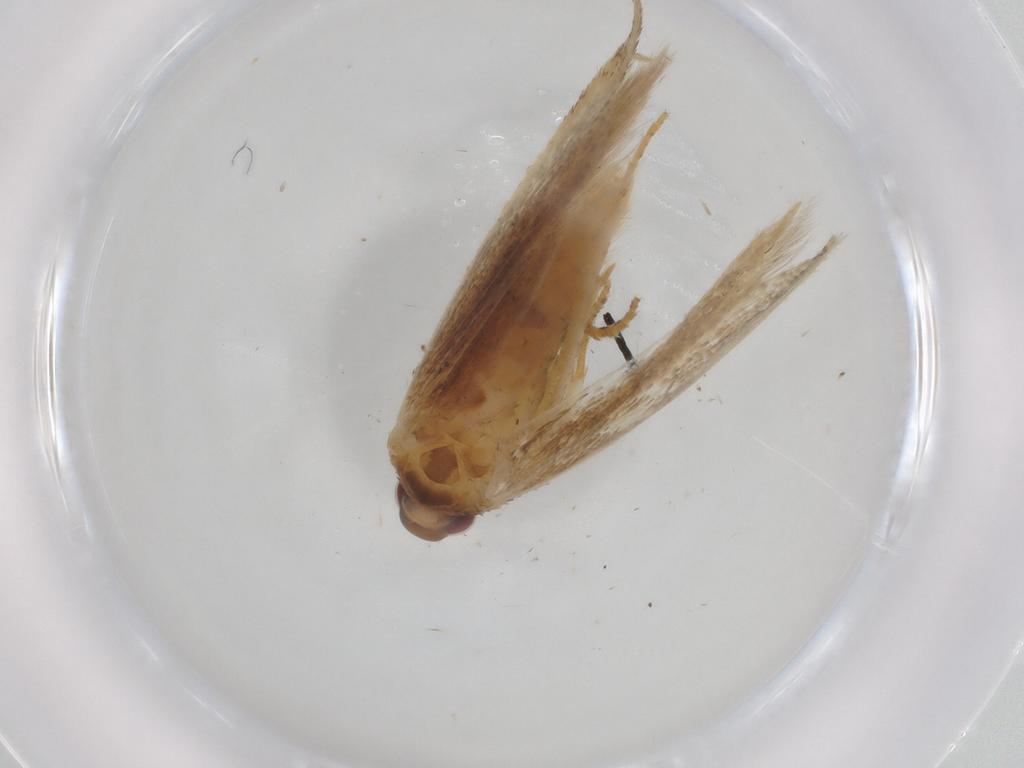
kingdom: Animalia
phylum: Arthropoda
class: Insecta
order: Lepidoptera
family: Gelechiidae
